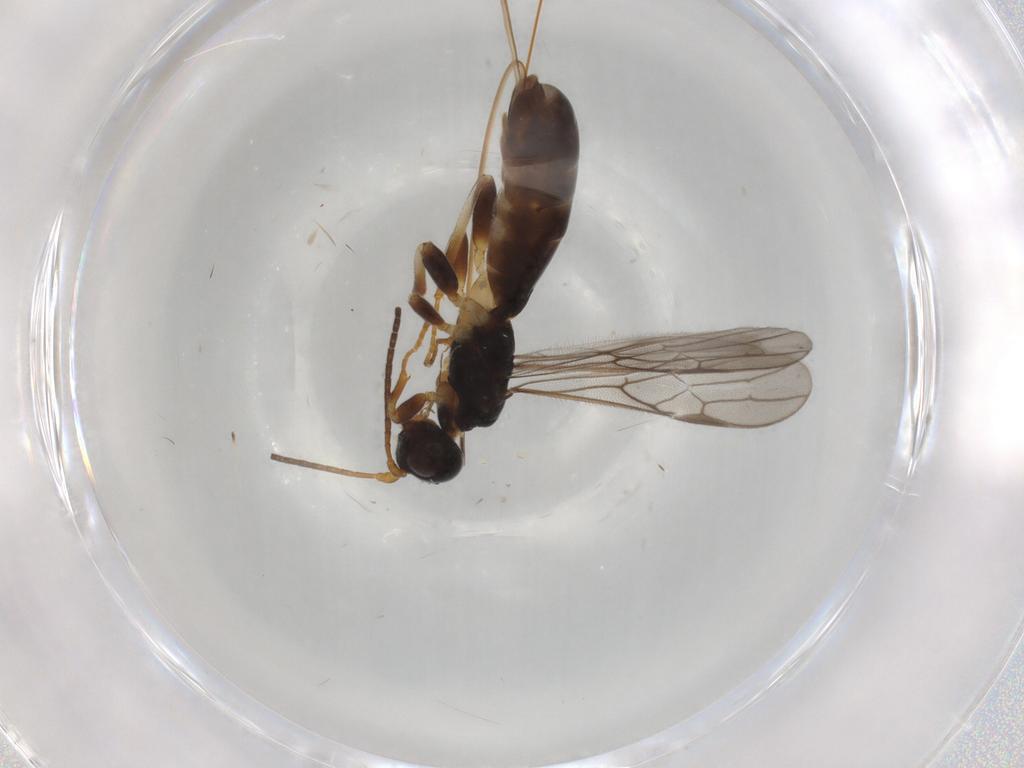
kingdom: Animalia
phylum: Arthropoda
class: Insecta
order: Hymenoptera
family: Braconidae
